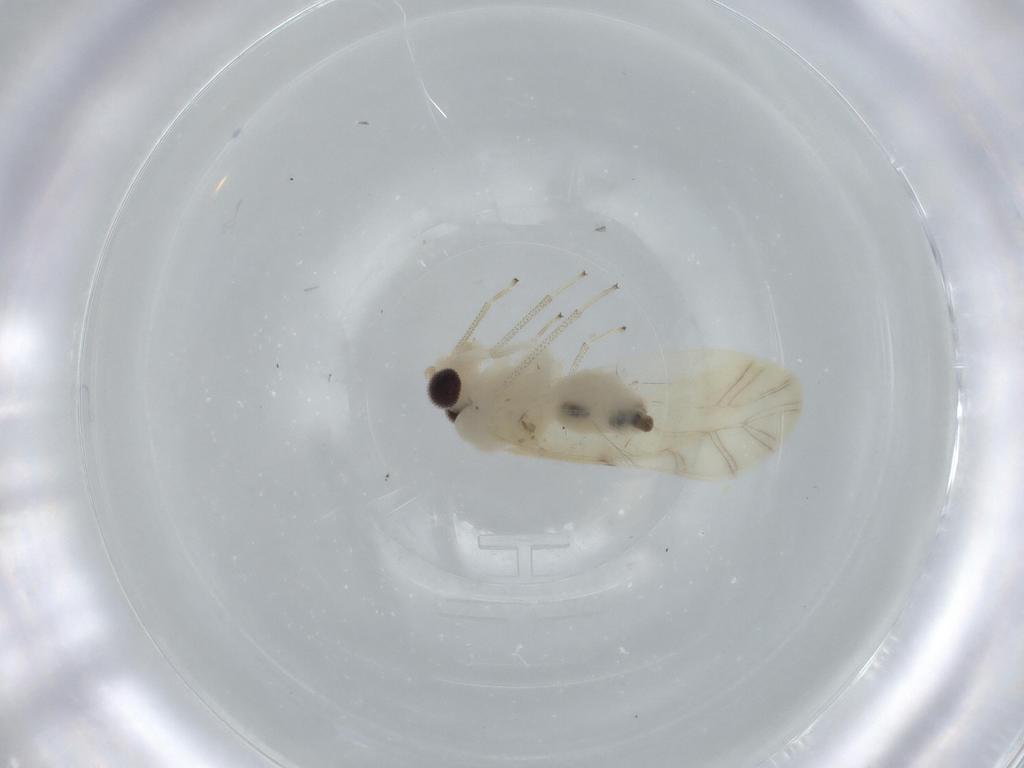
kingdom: Animalia
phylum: Arthropoda
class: Insecta
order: Psocodea
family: Caeciliusidae
